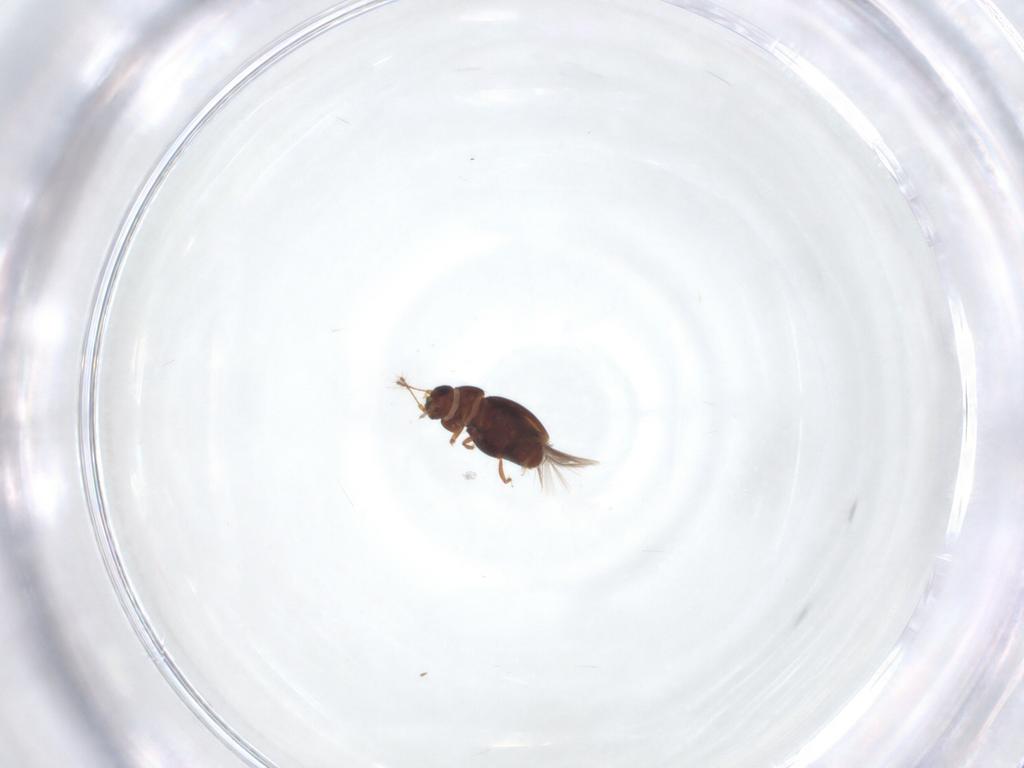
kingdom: Animalia
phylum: Arthropoda
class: Insecta
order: Coleoptera
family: Ptiliidae
